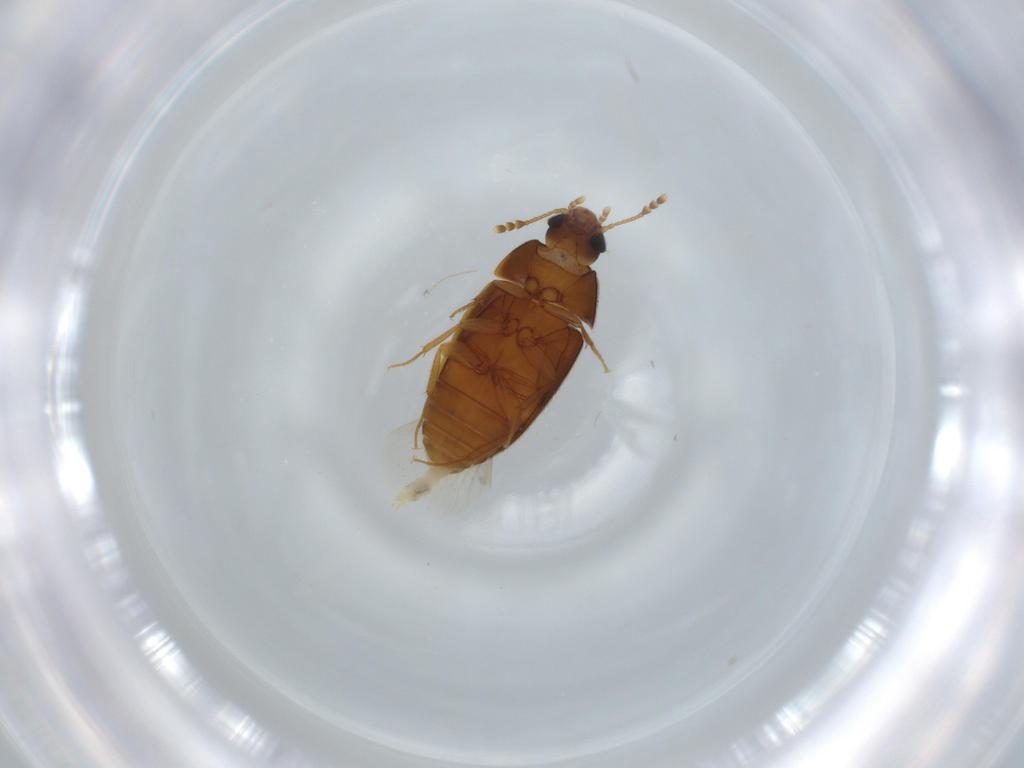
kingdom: Animalia
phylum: Arthropoda
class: Insecta
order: Coleoptera
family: Mycetophagidae
